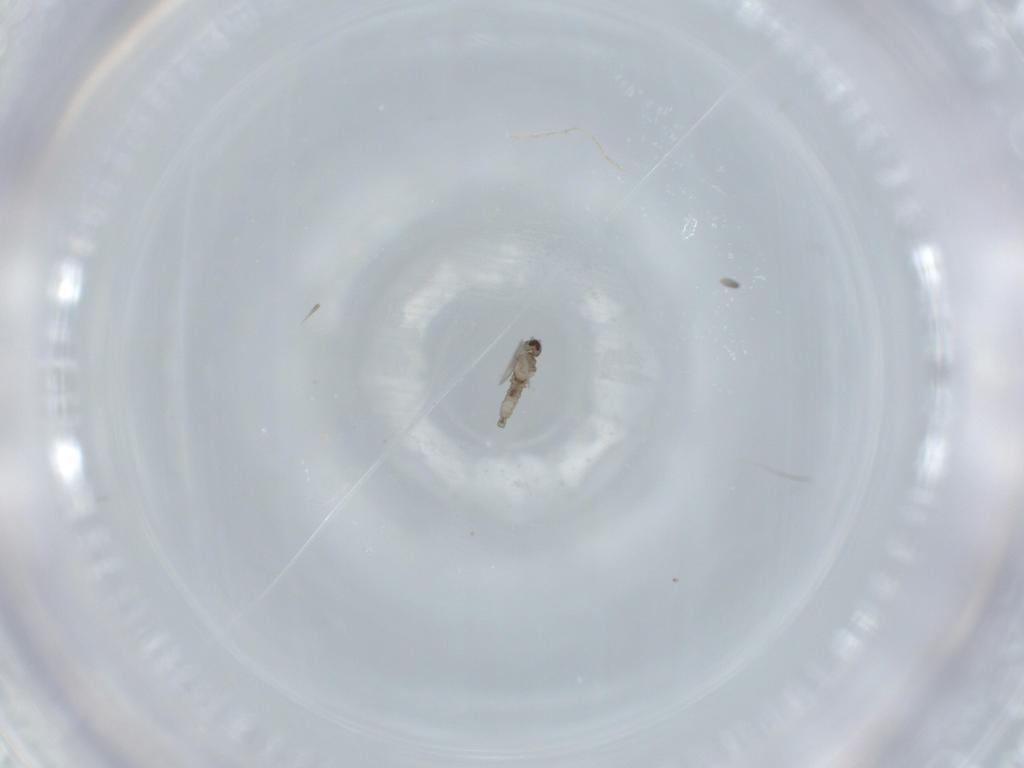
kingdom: Animalia
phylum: Arthropoda
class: Insecta
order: Diptera
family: Cecidomyiidae
